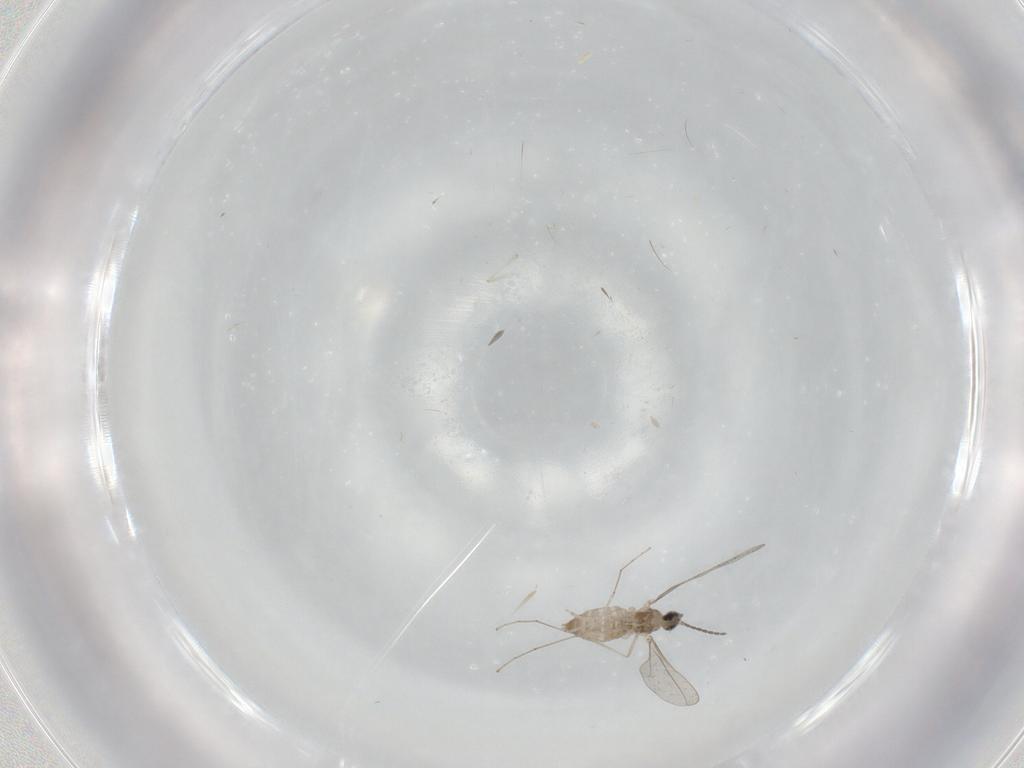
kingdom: Animalia
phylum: Arthropoda
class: Insecta
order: Diptera
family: Cecidomyiidae
